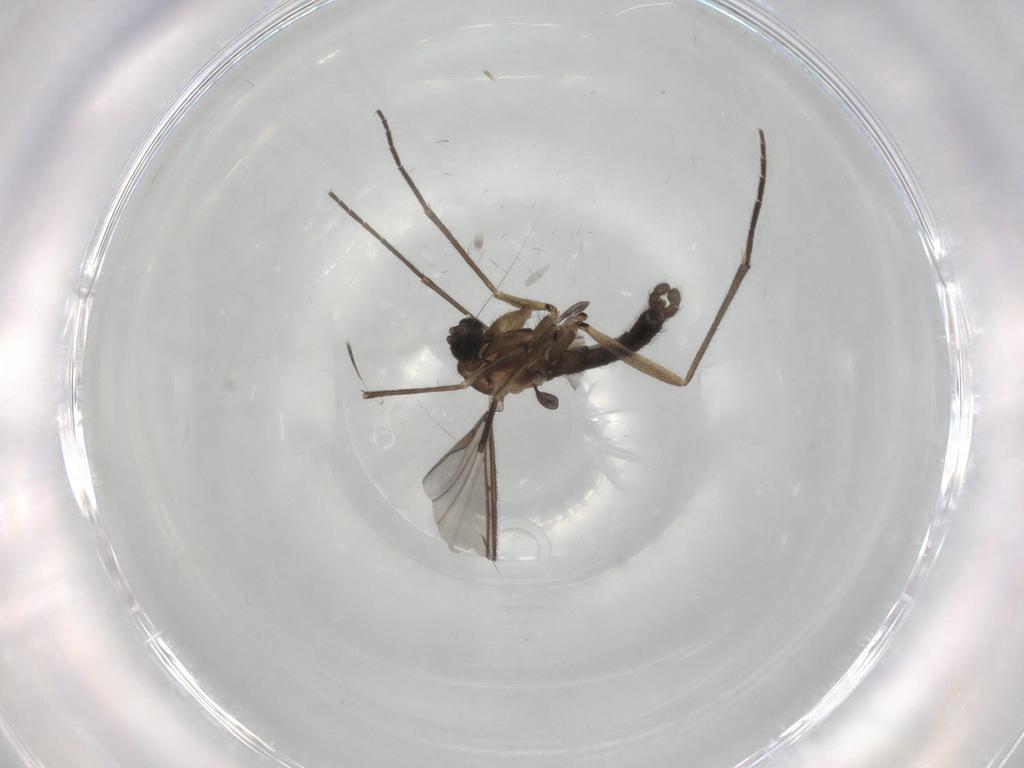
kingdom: Animalia
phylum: Arthropoda
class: Insecta
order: Diptera
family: Sciaridae
